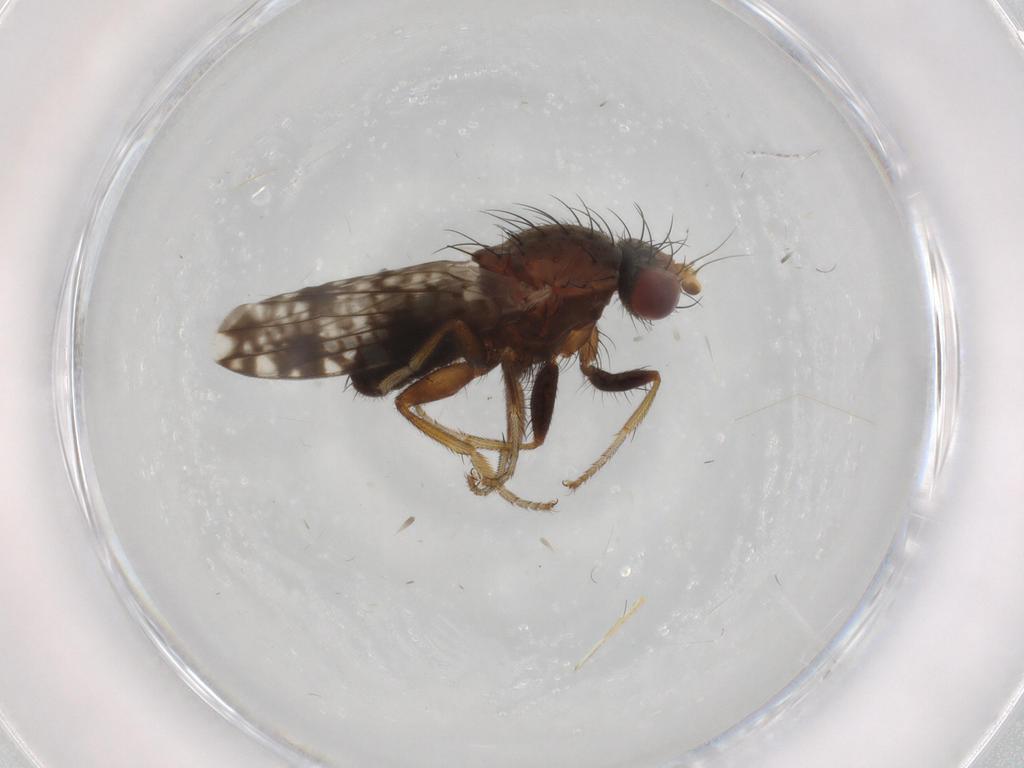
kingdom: Animalia
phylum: Arthropoda
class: Insecta
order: Diptera
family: Tephritidae
